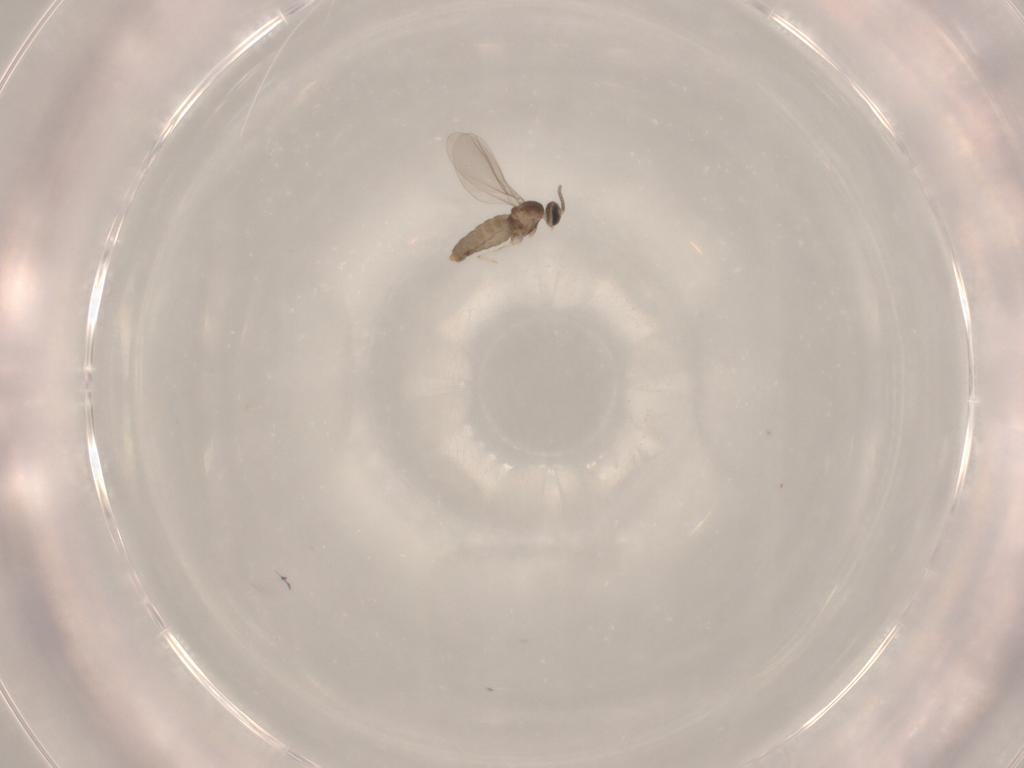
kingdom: Animalia
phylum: Arthropoda
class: Insecta
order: Diptera
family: Cecidomyiidae
